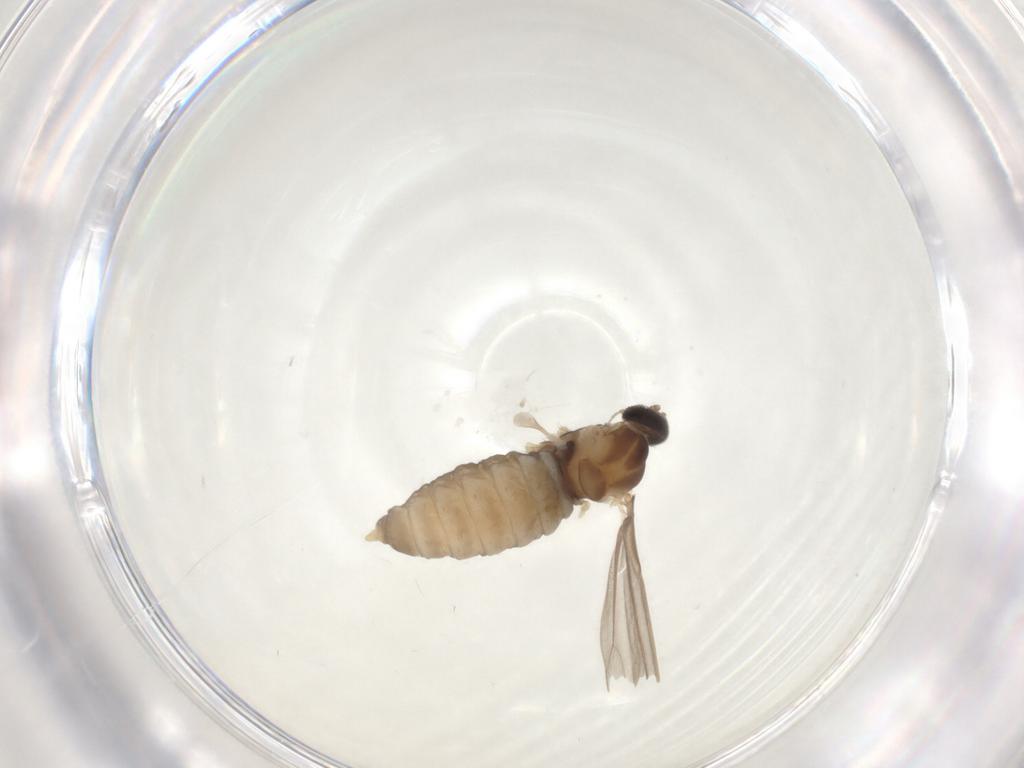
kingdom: Animalia
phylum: Arthropoda
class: Insecta
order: Diptera
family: Cecidomyiidae
